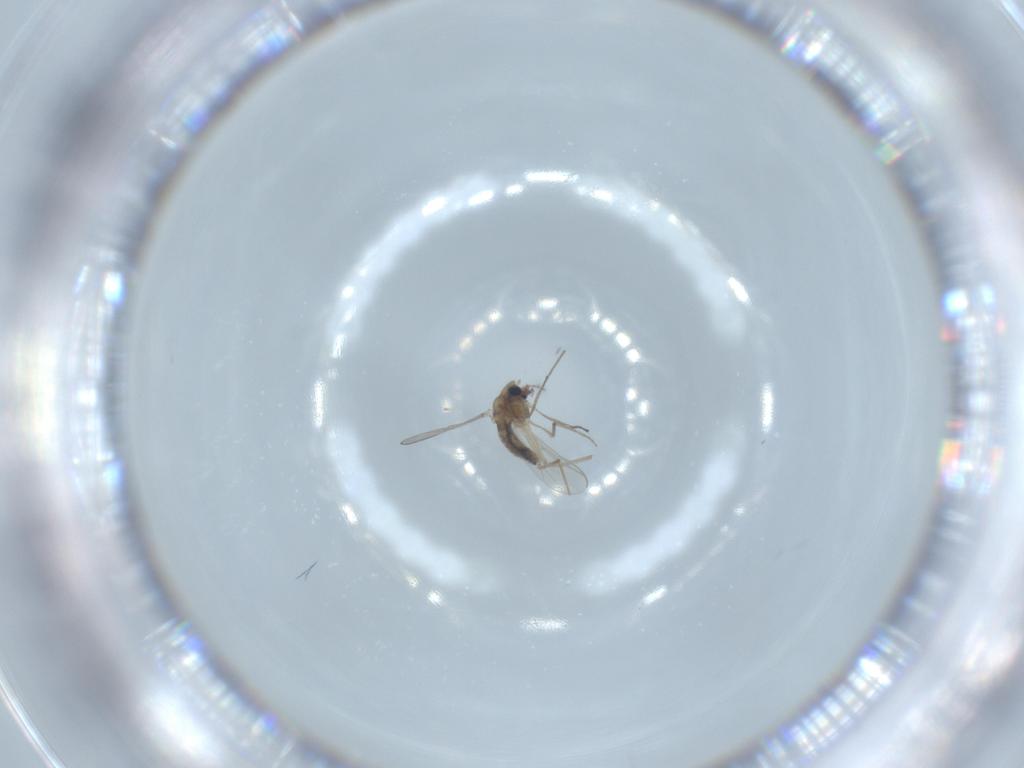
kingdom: Animalia
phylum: Arthropoda
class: Insecta
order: Diptera
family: Chironomidae
